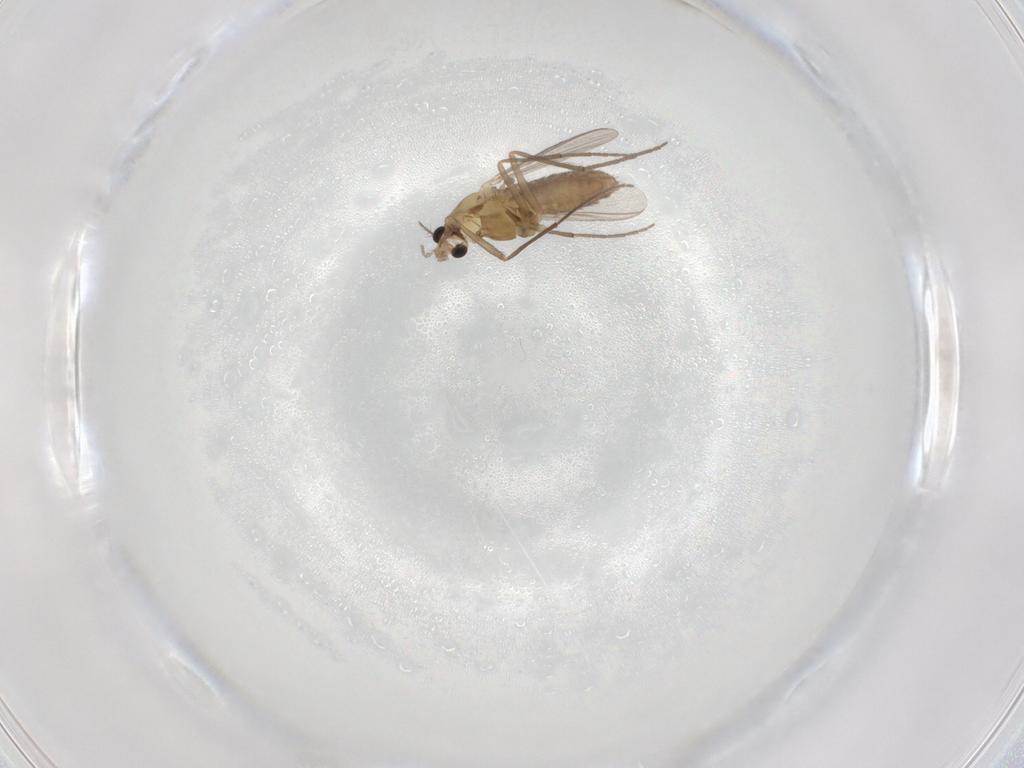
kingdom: Animalia
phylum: Arthropoda
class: Insecta
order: Diptera
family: Chironomidae
